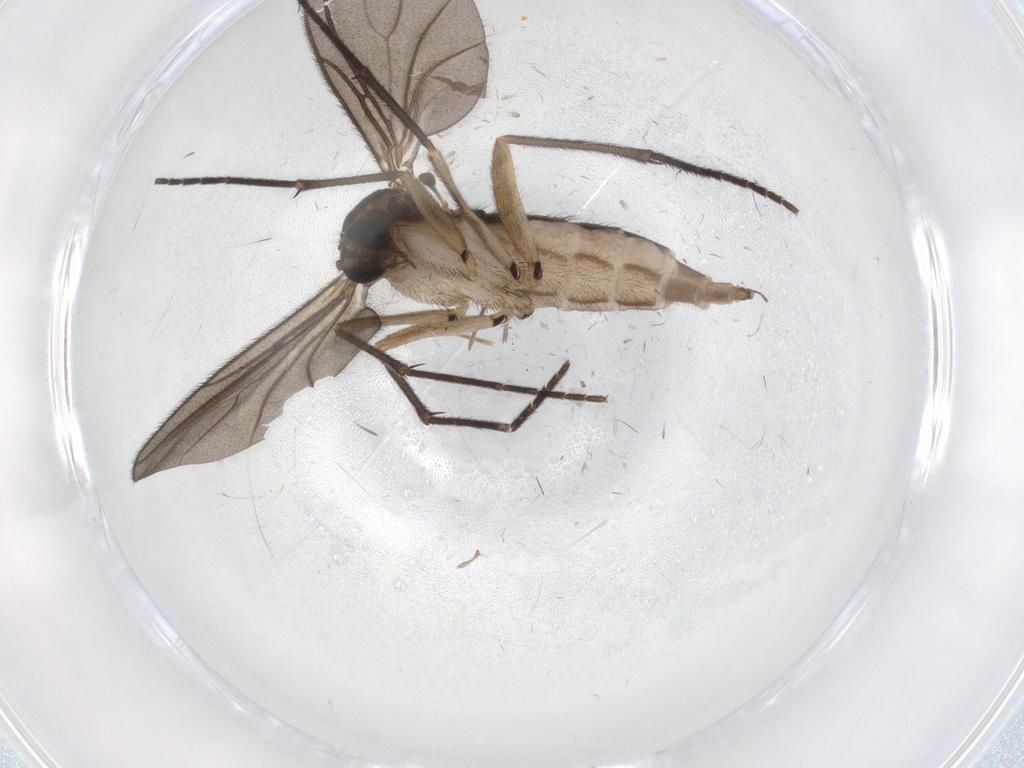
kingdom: Animalia
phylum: Arthropoda
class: Insecta
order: Diptera
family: Sciaridae
